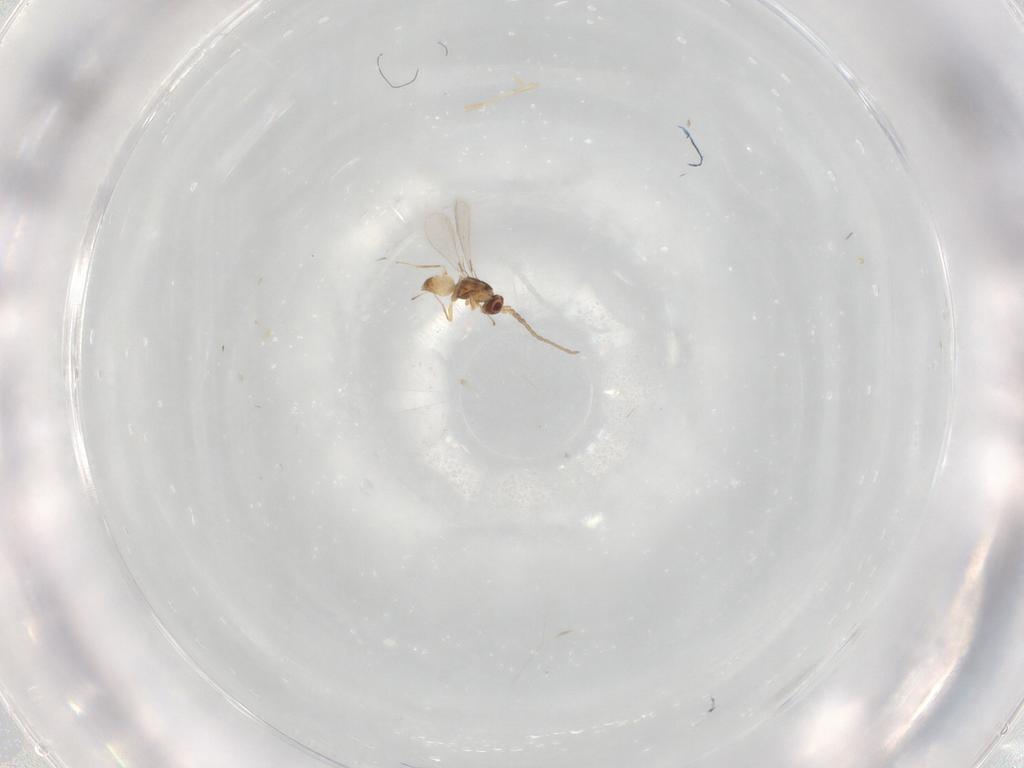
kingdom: Animalia
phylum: Arthropoda
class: Insecta
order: Hymenoptera
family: Mymaridae
